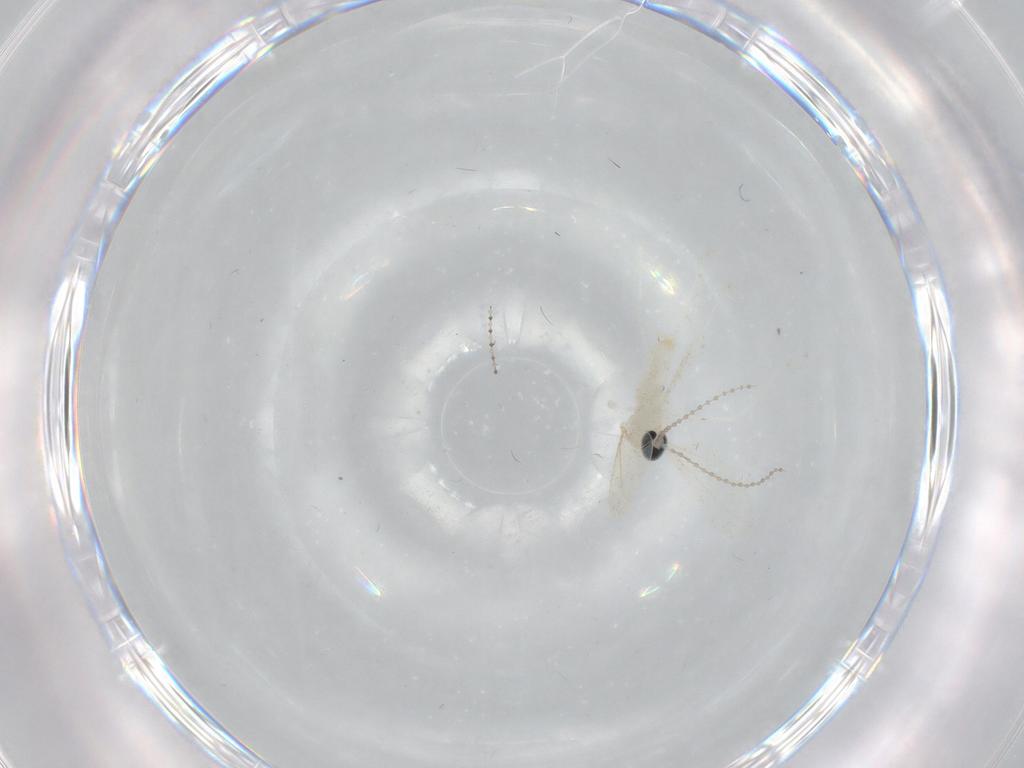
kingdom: Animalia
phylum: Arthropoda
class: Insecta
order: Diptera
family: Cecidomyiidae
